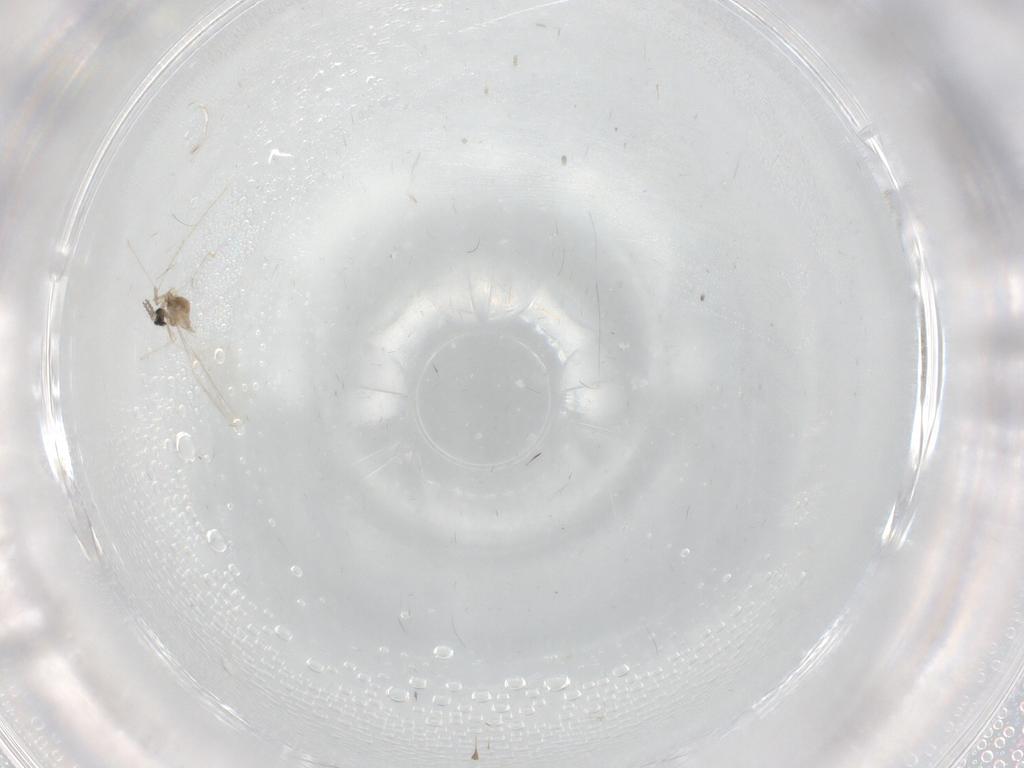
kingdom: Animalia
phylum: Arthropoda
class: Insecta
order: Diptera
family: Cecidomyiidae
